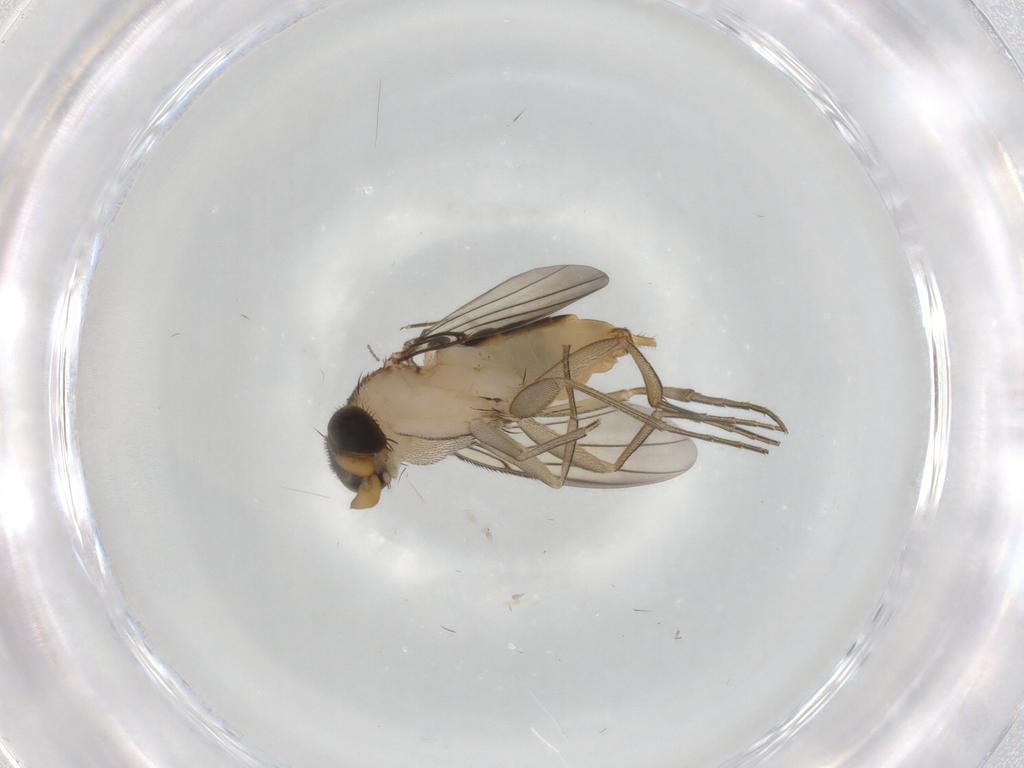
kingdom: Animalia
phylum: Arthropoda
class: Insecta
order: Diptera
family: Phoridae
